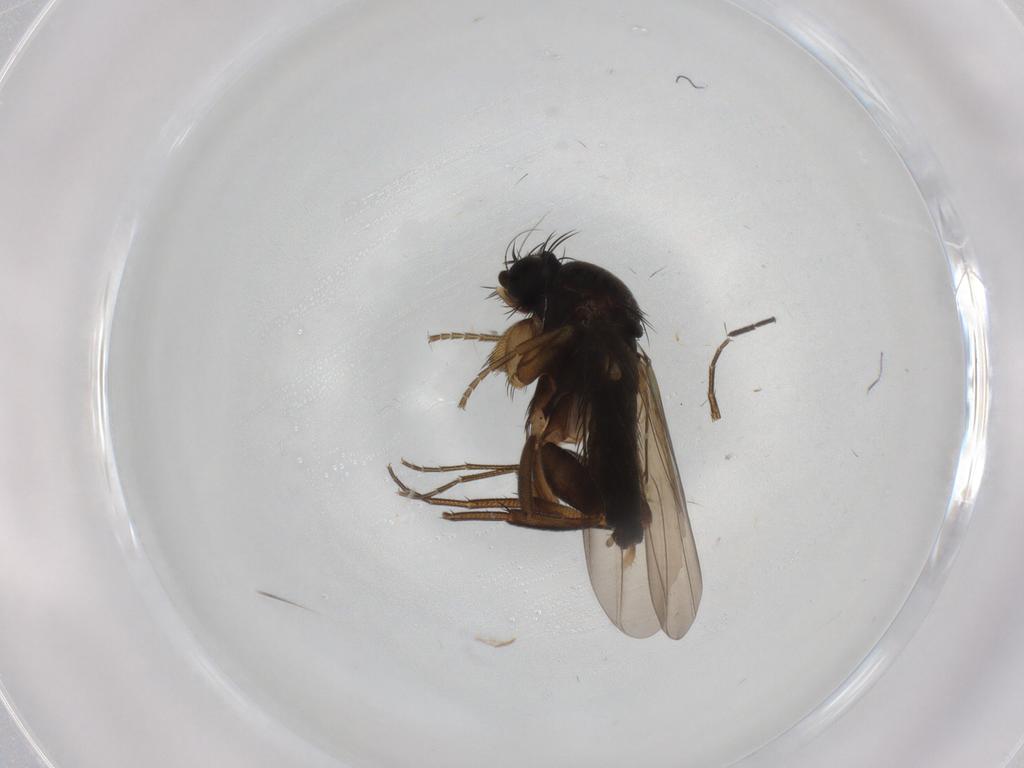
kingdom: Animalia
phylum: Arthropoda
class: Insecta
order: Diptera
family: Phoridae
